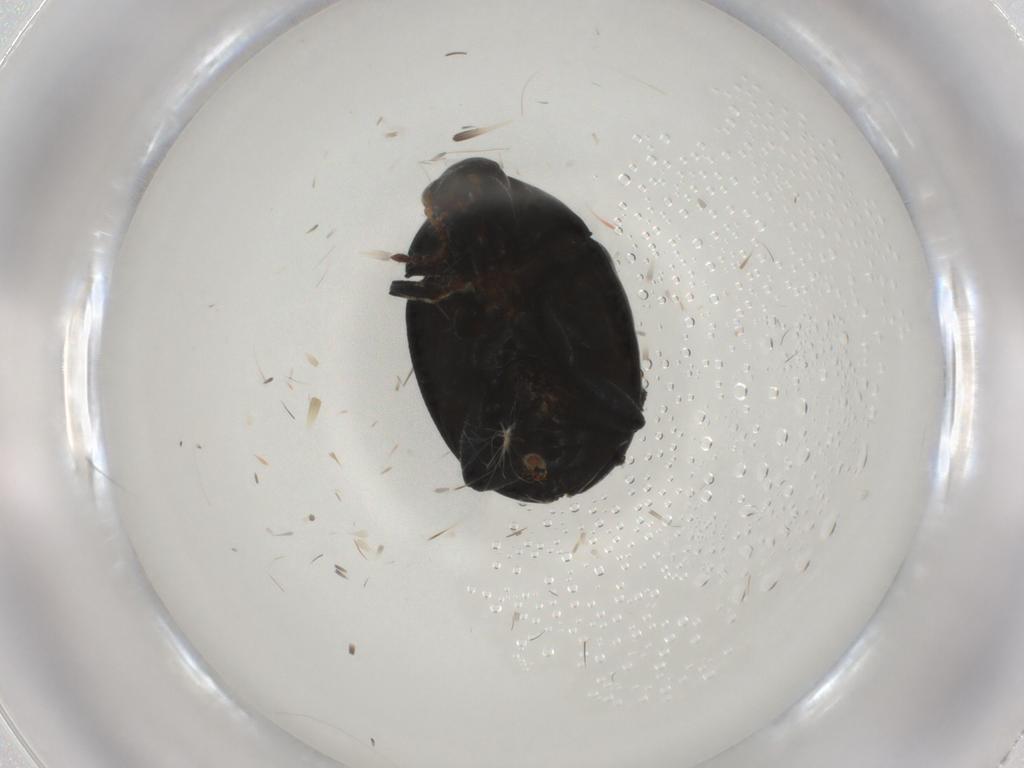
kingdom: Animalia
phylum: Arthropoda
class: Insecta
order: Coleoptera
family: Chrysomelidae
